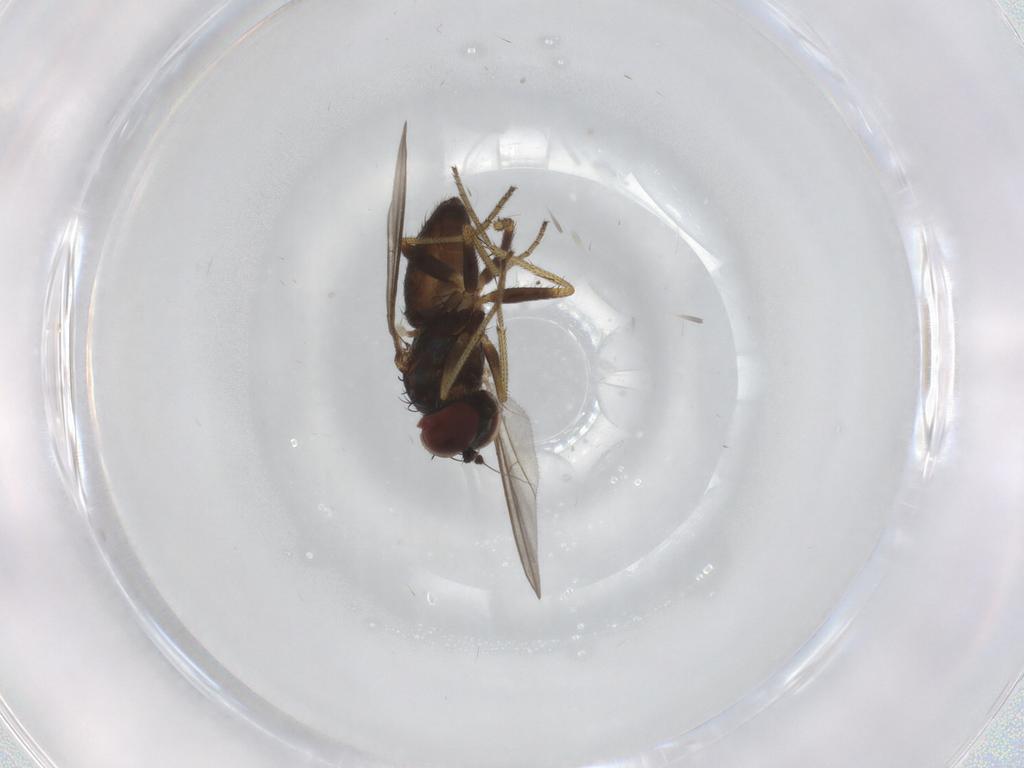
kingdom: Animalia
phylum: Arthropoda
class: Insecta
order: Diptera
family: Cecidomyiidae
